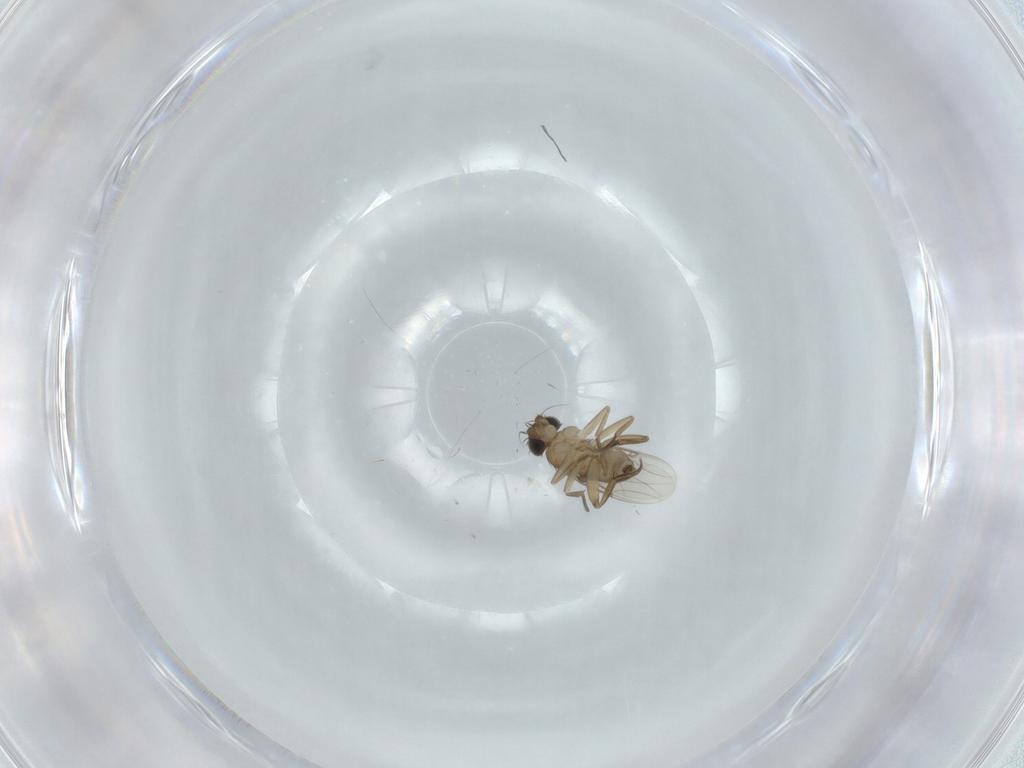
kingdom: Animalia
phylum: Arthropoda
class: Insecta
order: Diptera
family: Phoridae
